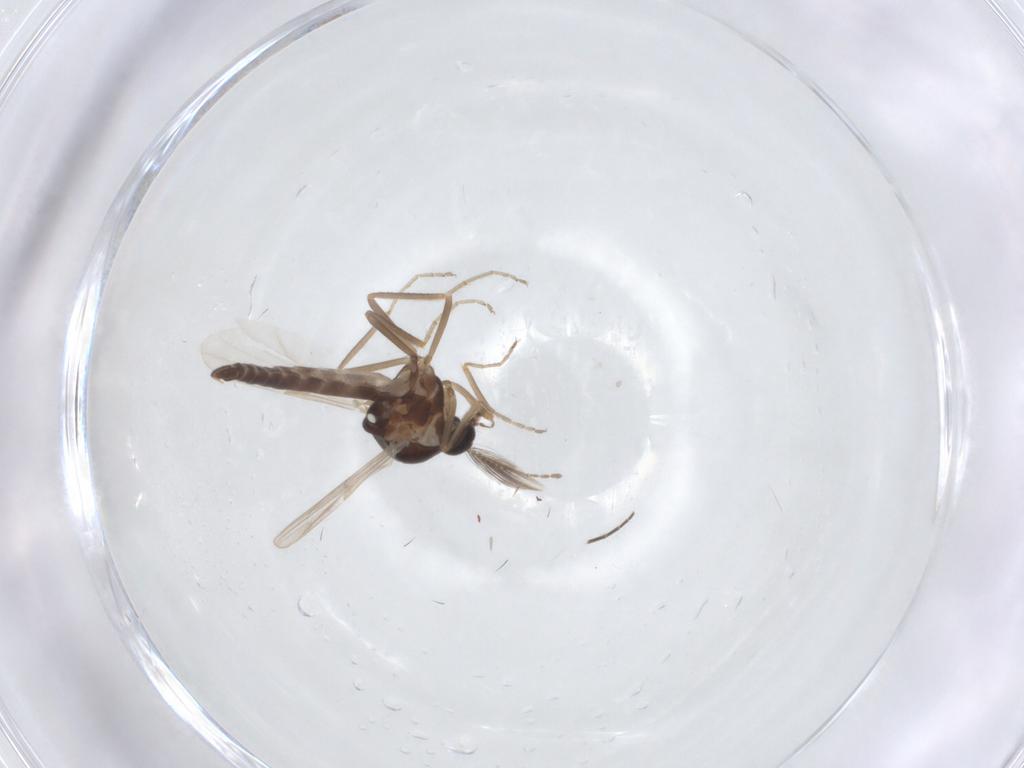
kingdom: Animalia
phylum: Arthropoda
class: Insecta
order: Diptera
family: Ceratopogonidae
